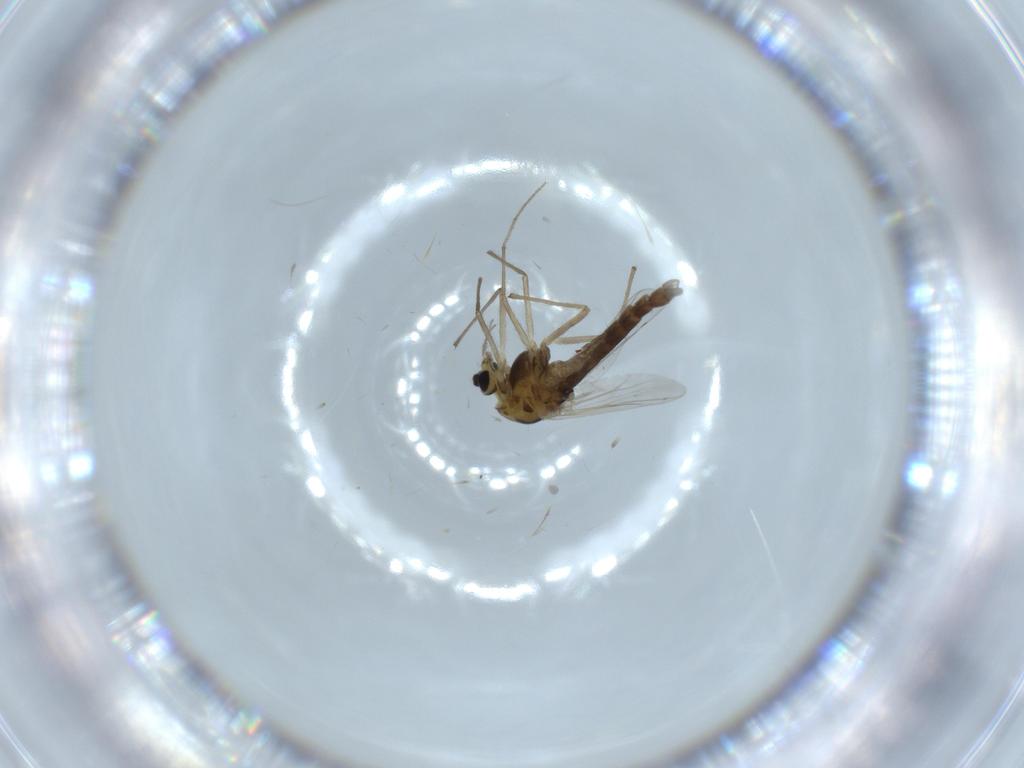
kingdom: Animalia
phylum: Arthropoda
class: Insecta
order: Diptera
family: Chironomidae
